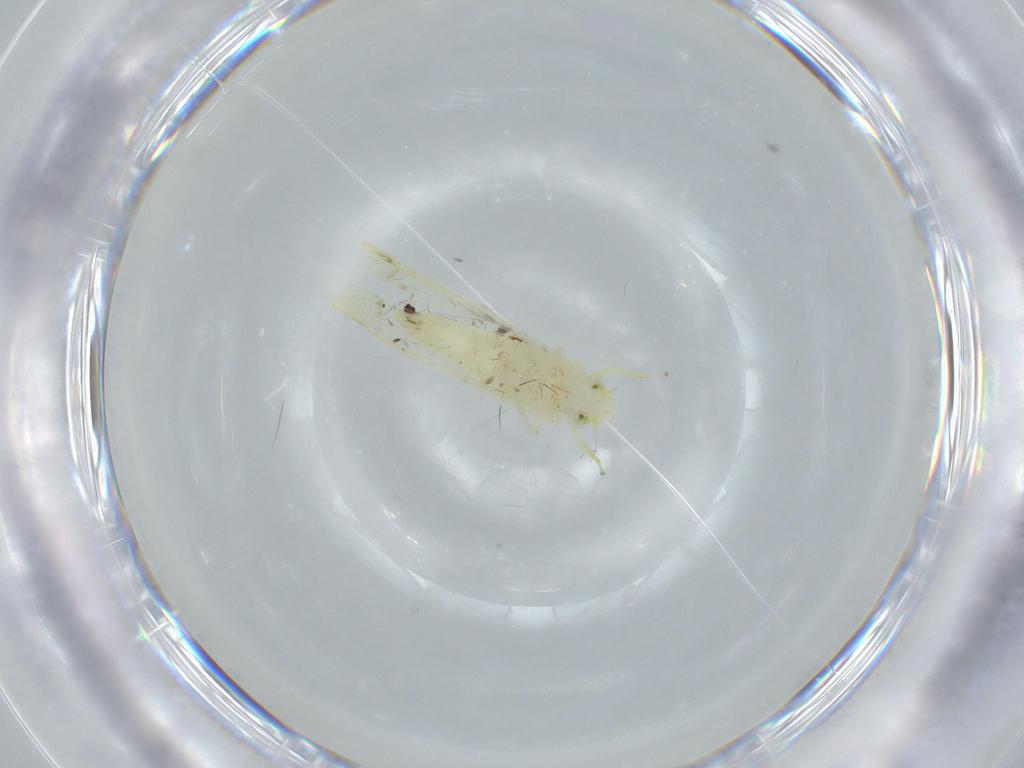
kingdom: Animalia
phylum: Arthropoda
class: Insecta
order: Hemiptera
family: Cicadellidae
